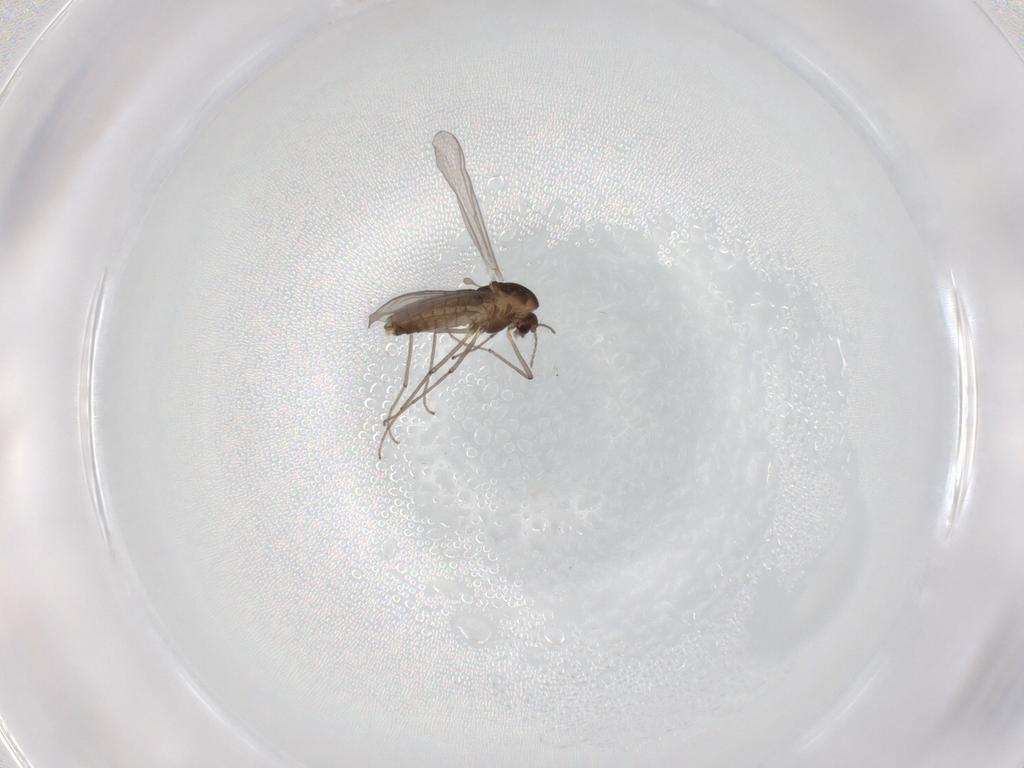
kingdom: Animalia
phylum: Arthropoda
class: Insecta
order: Diptera
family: Chironomidae
